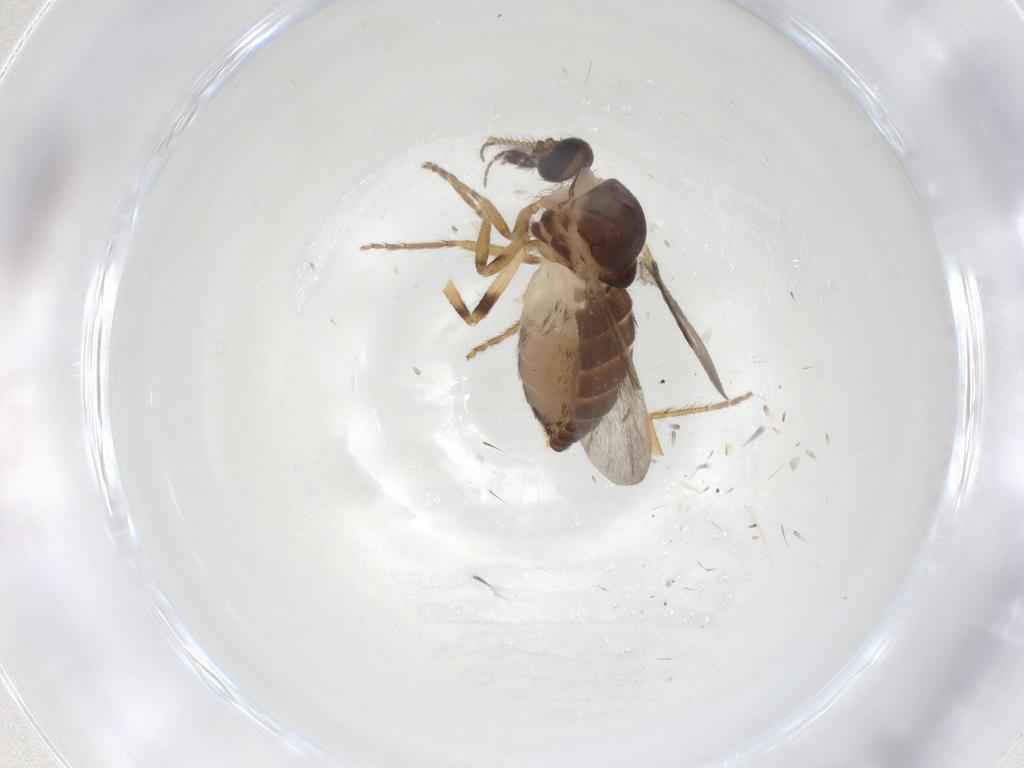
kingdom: Animalia
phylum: Arthropoda
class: Insecta
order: Diptera
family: Ceratopogonidae
